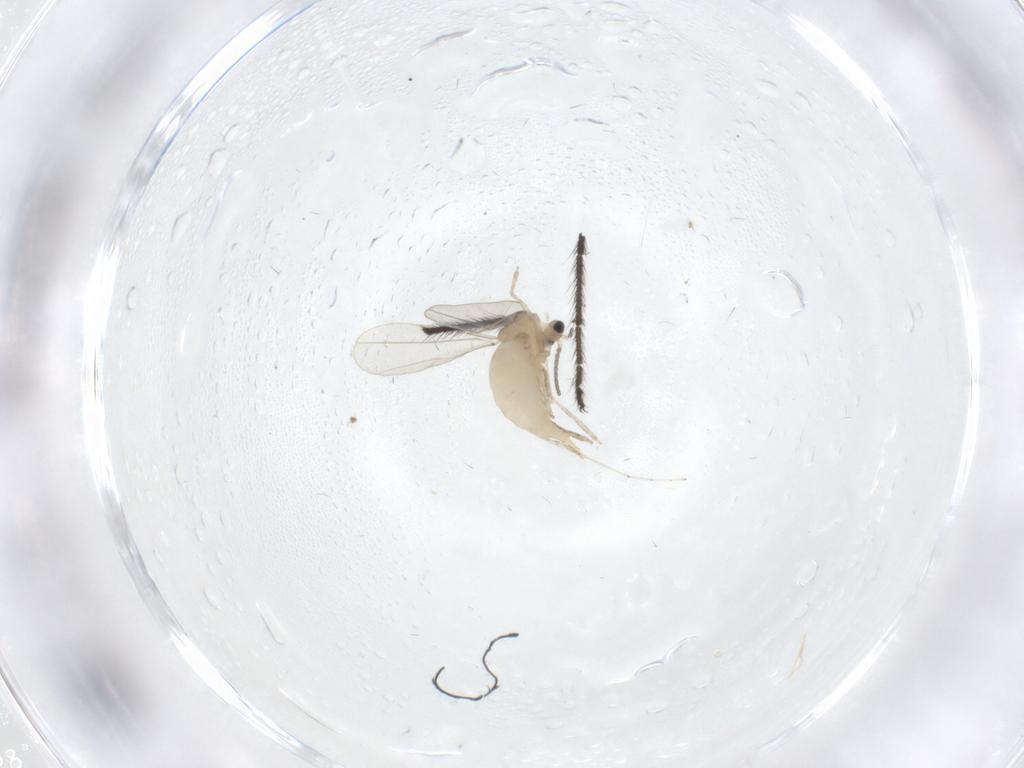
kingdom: Animalia
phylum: Arthropoda
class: Insecta
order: Diptera
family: Cecidomyiidae
